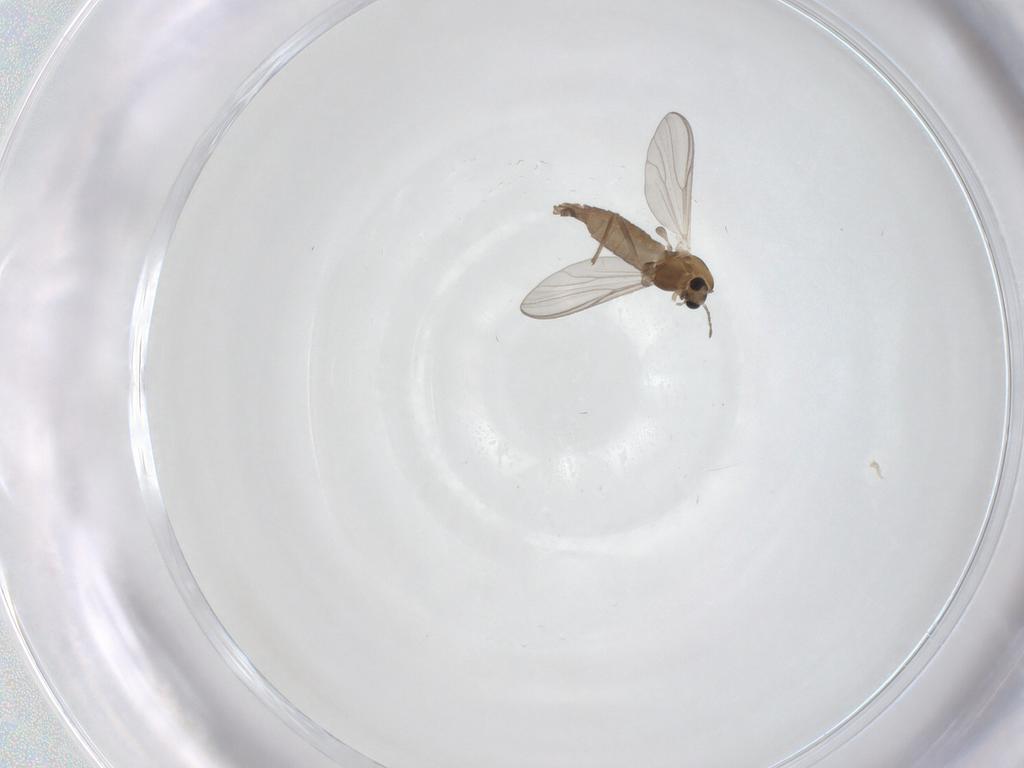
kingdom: Animalia
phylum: Arthropoda
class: Insecta
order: Diptera
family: Chironomidae
